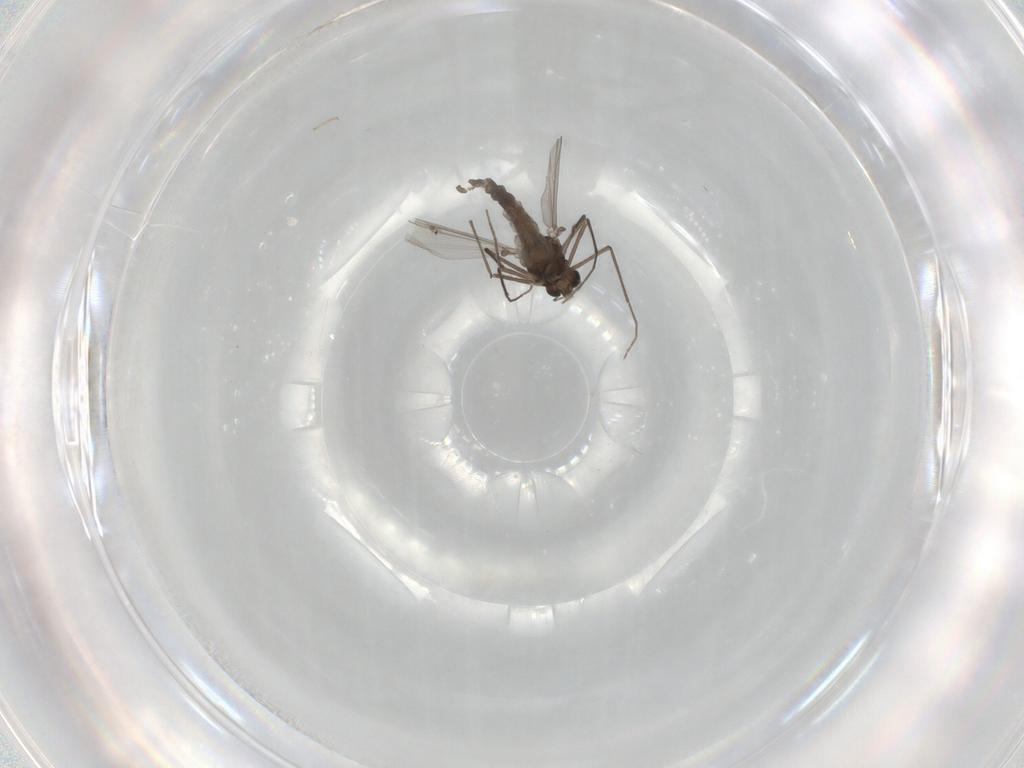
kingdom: Animalia
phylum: Arthropoda
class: Insecta
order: Diptera
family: Chironomidae
